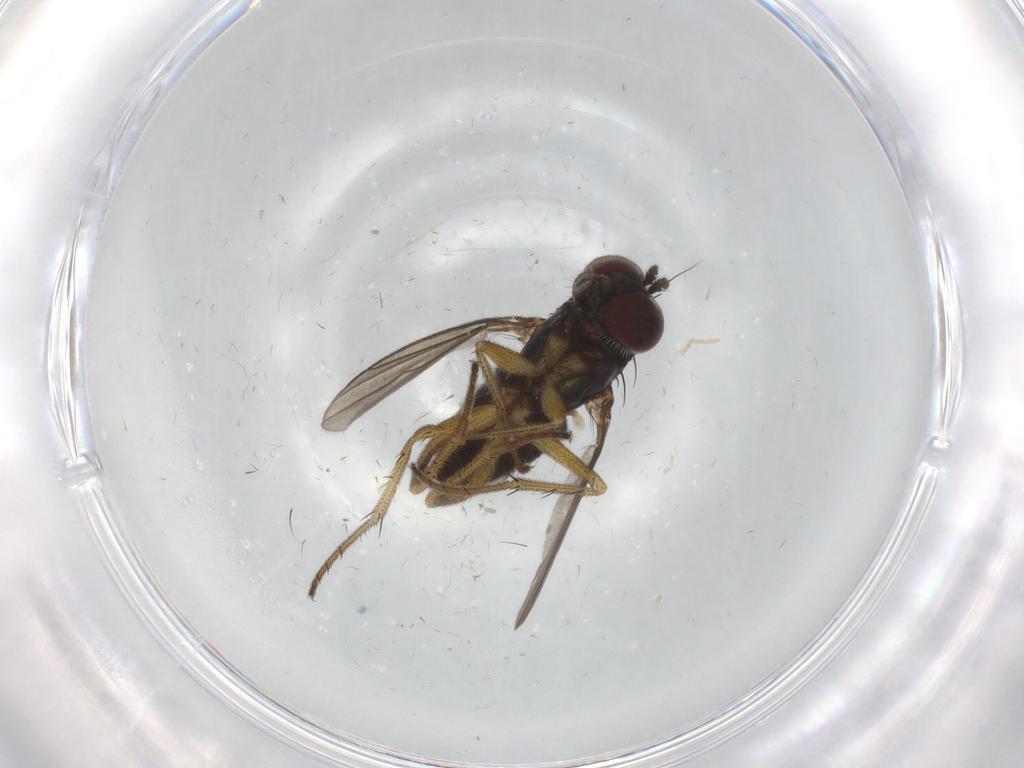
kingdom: Animalia
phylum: Arthropoda
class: Insecta
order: Diptera
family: Dolichopodidae
